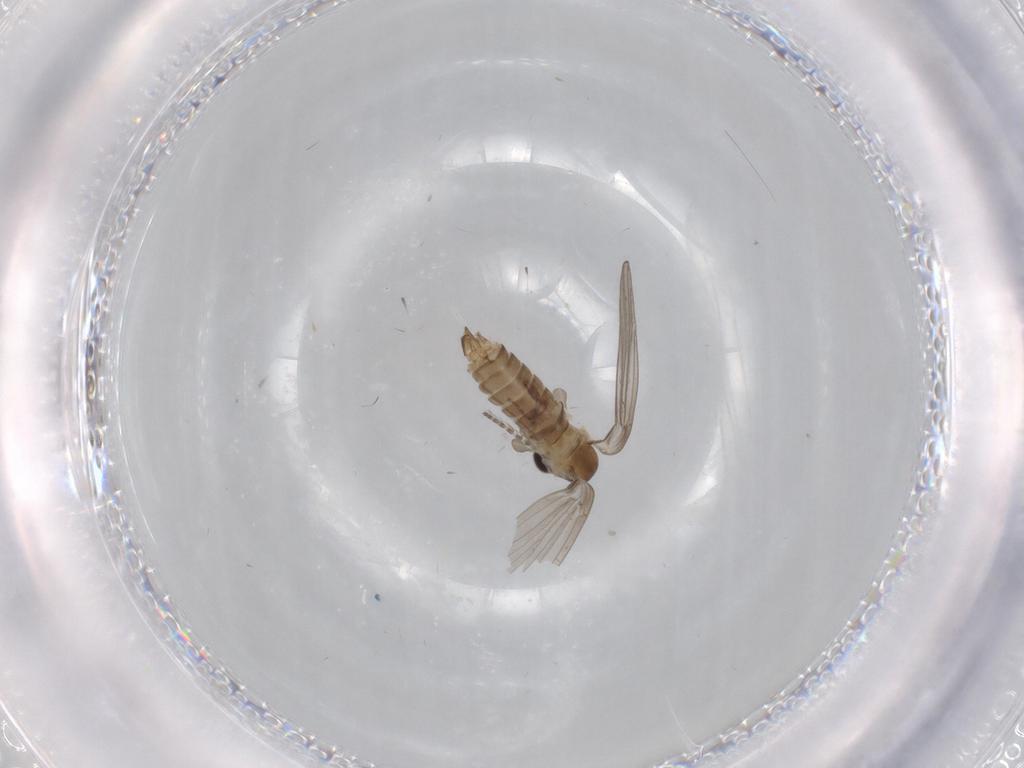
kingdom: Animalia
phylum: Arthropoda
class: Insecta
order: Diptera
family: Psychodidae
